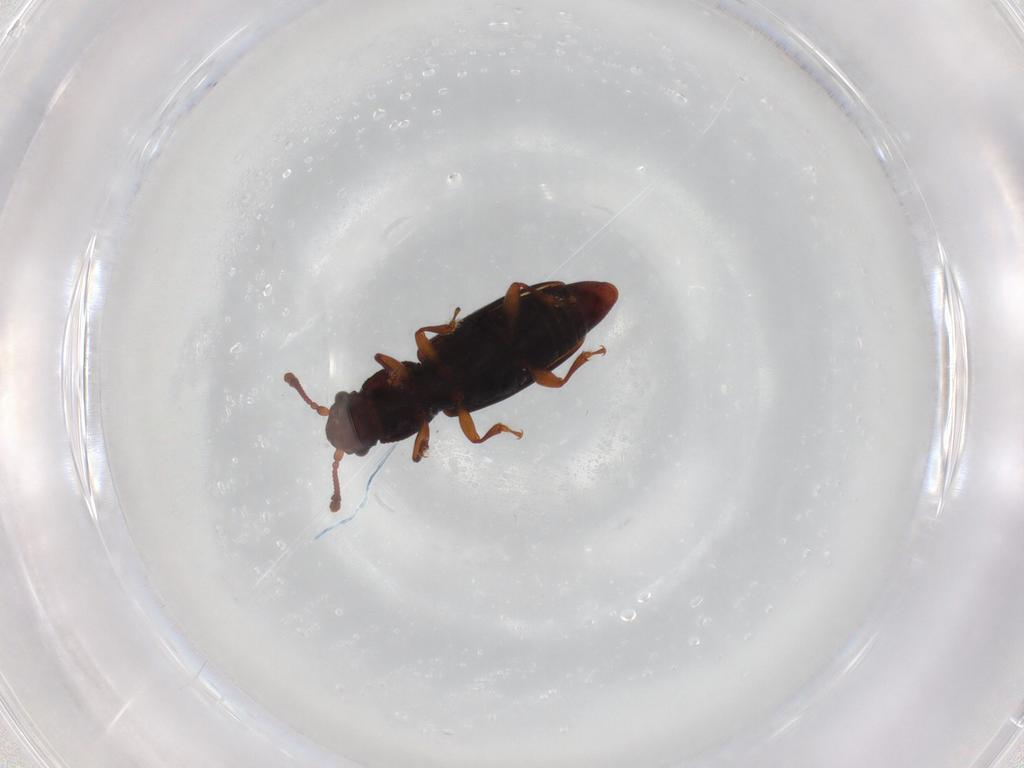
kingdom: Animalia
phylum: Arthropoda
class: Insecta
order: Coleoptera
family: Monotomidae
